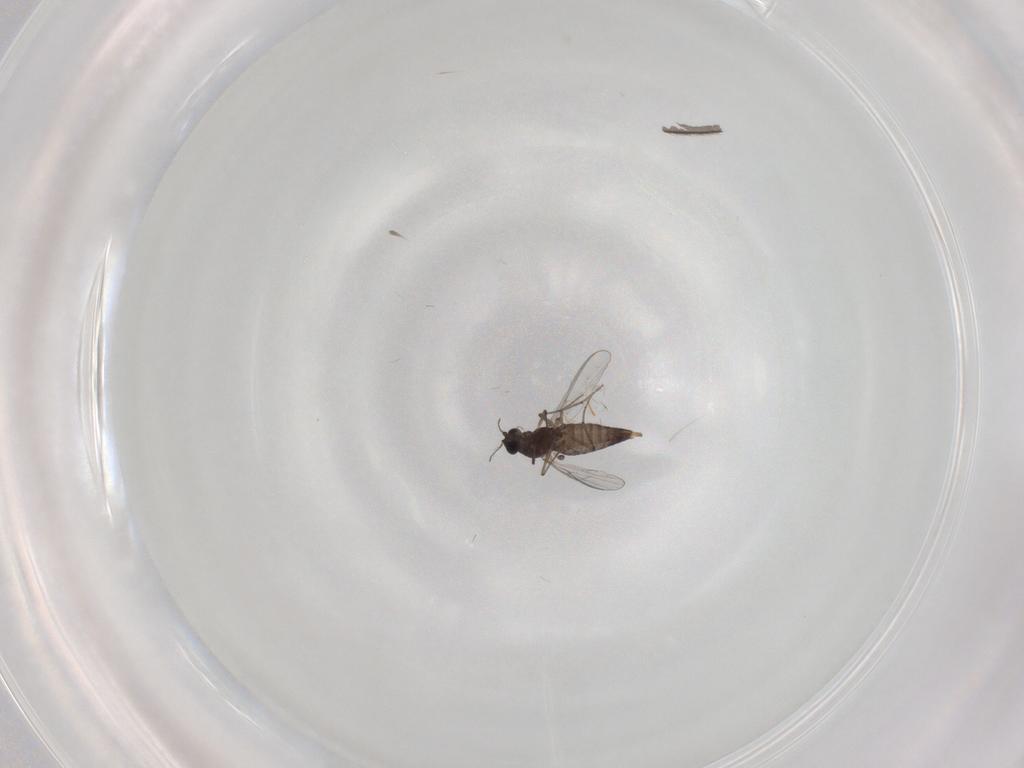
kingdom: Animalia
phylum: Arthropoda
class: Insecta
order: Diptera
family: Chironomidae
